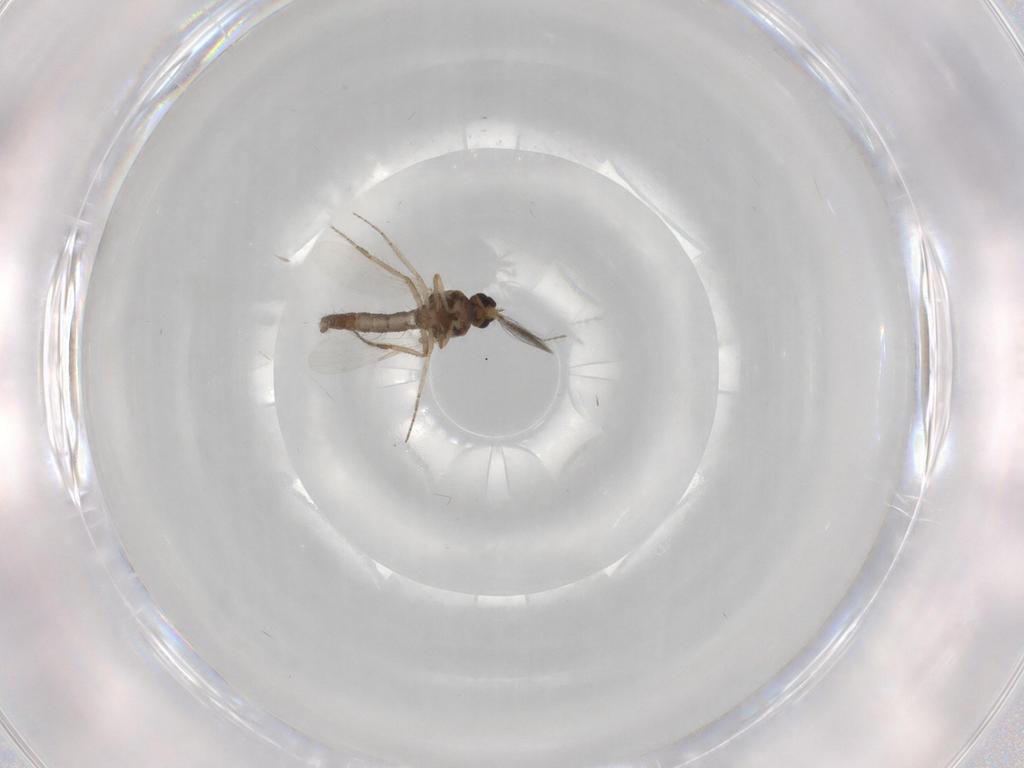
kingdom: Animalia
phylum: Arthropoda
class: Insecta
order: Diptera
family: Ceratopogonidae
